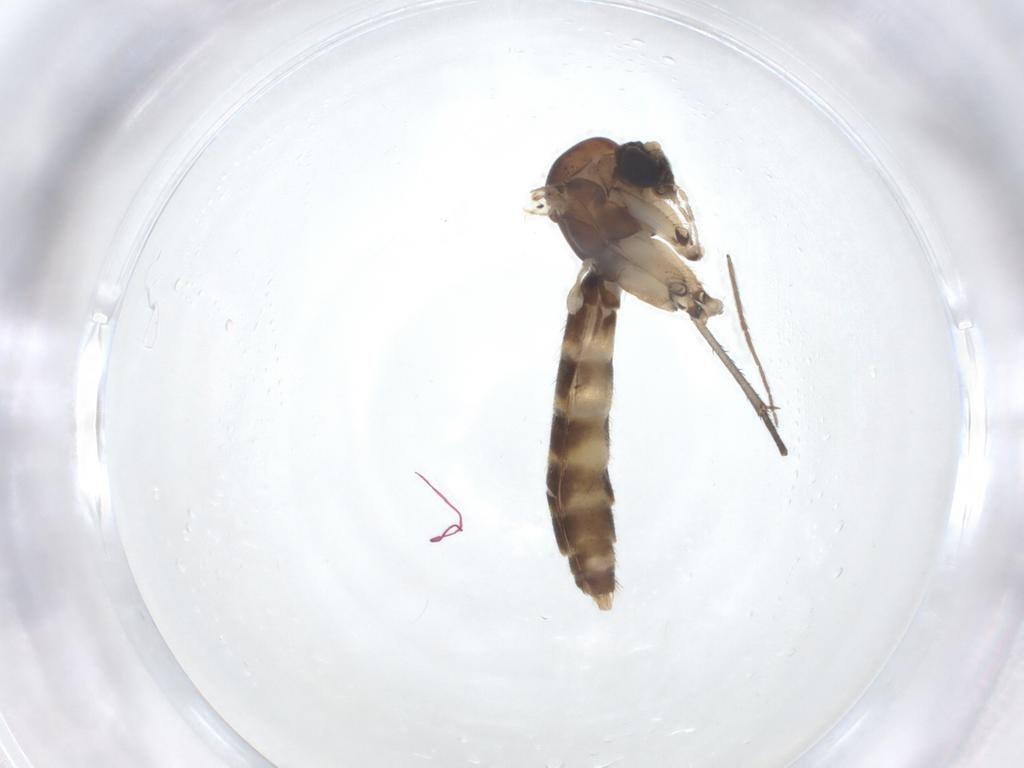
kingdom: Animalia
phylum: Arthropoda
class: Insecta
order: Diptera
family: Mycetophilidae
